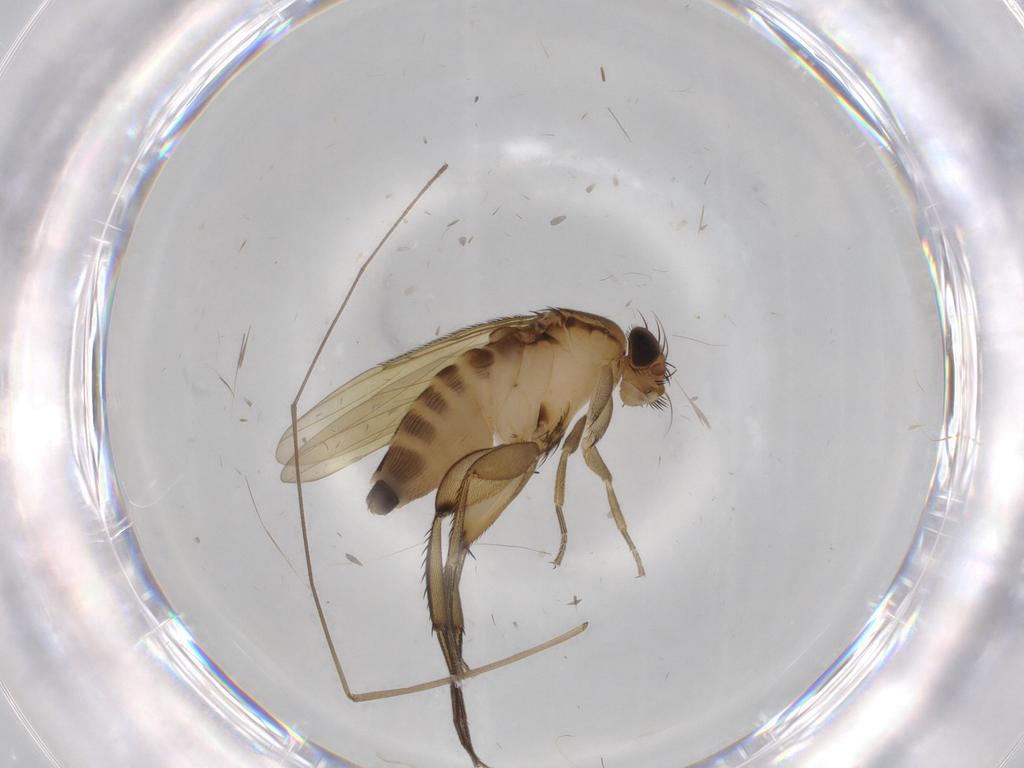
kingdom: Animalia
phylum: Arthropoda
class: Insecta
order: Diptera
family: Phoridae
